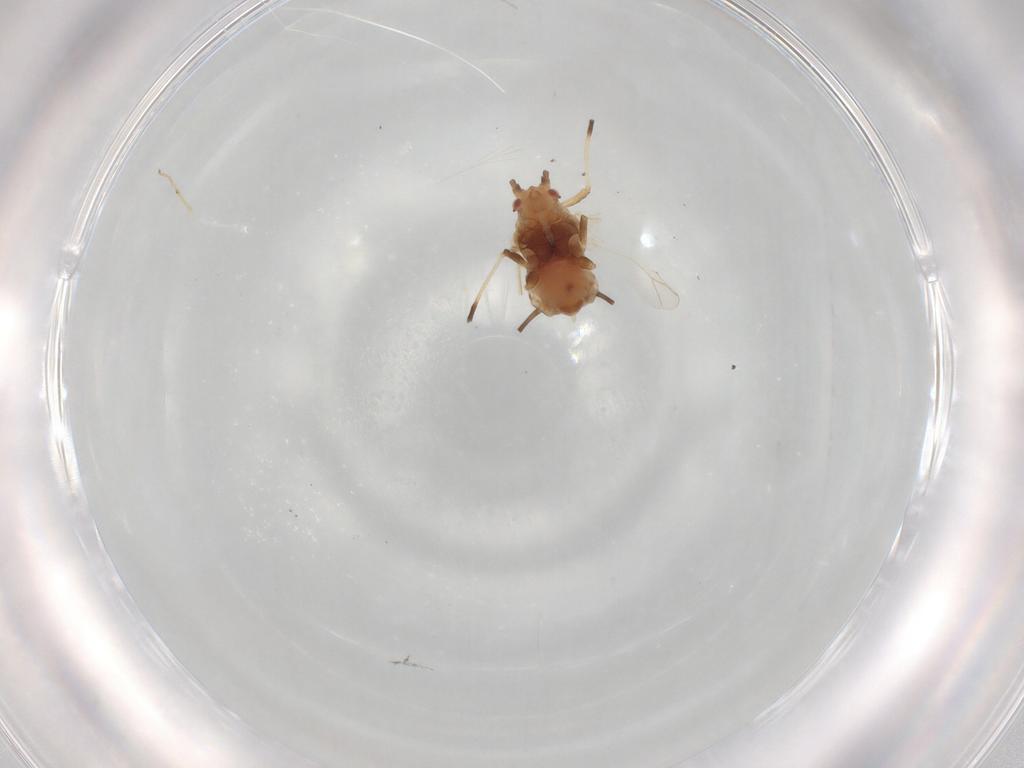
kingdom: Animalia
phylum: Arthropoda
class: Insecta
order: Hemiptera
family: Aphididae
